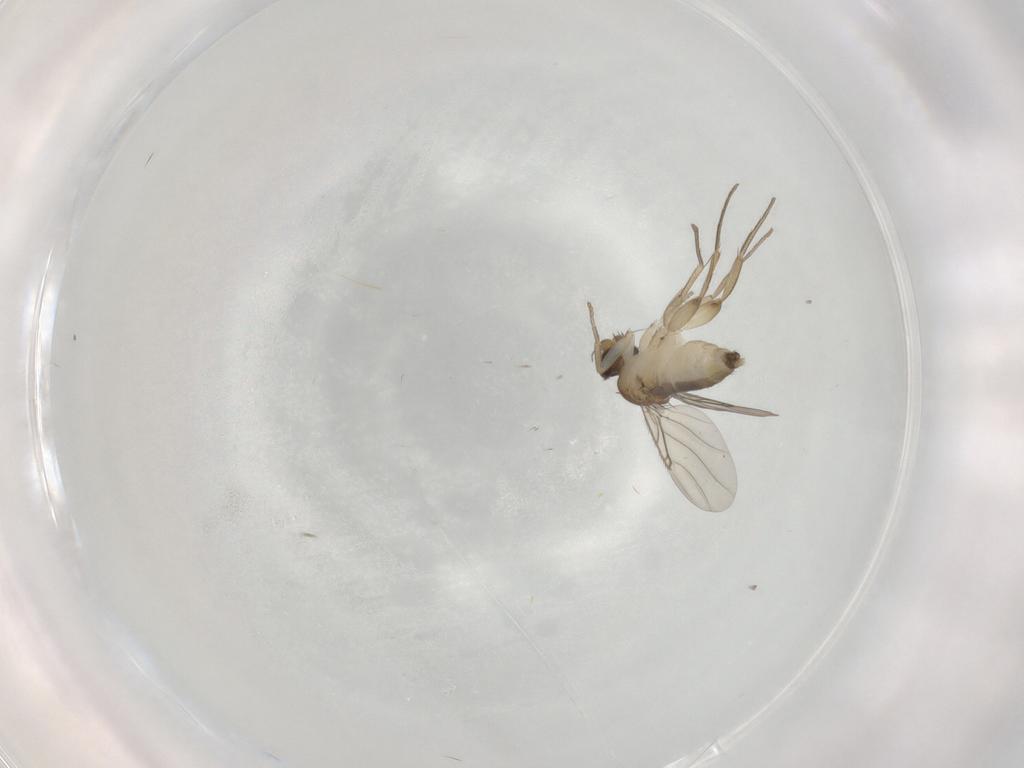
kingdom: Animalia
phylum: Arthropoda
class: Insecta
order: Diptera
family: Phoridae
